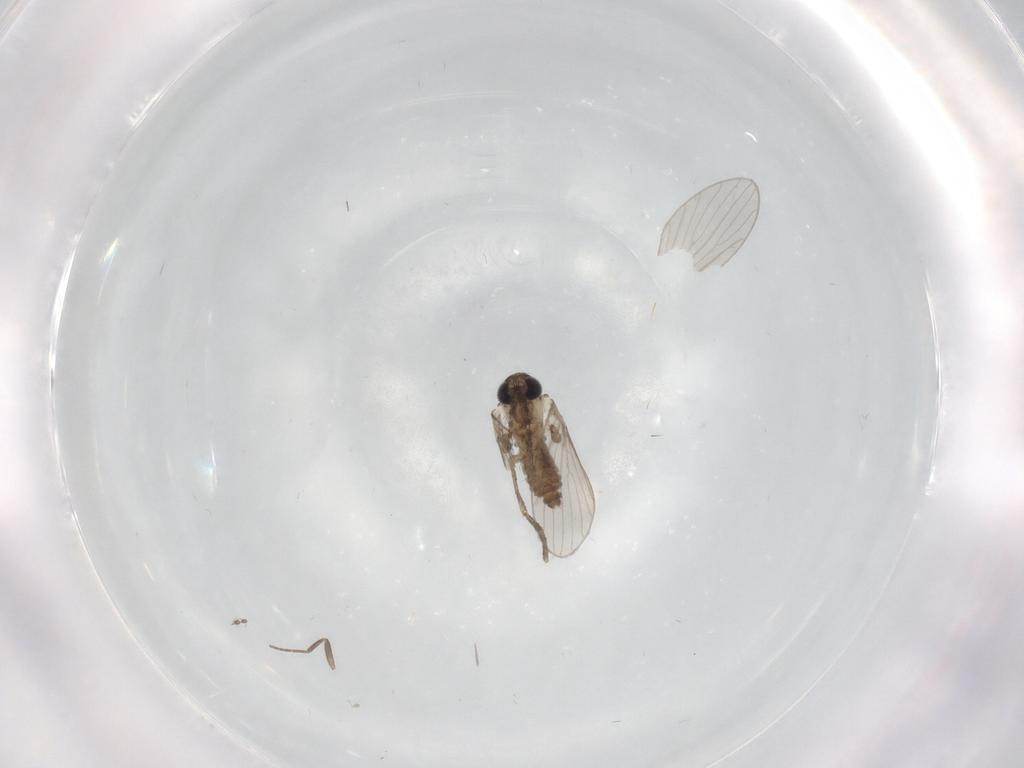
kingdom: Animalia
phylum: Arthropoda
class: Insecta
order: Diptera
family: Psychodidae
